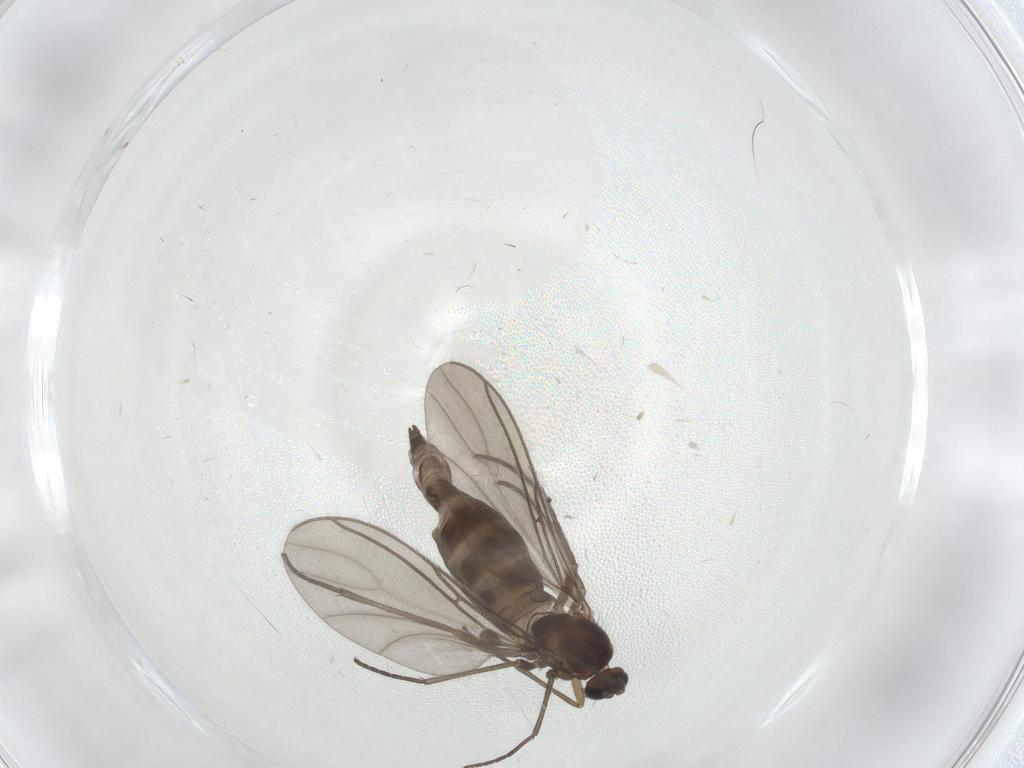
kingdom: Animalia
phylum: Arthropoda
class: Insecta
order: Diptera
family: Sciaridae
